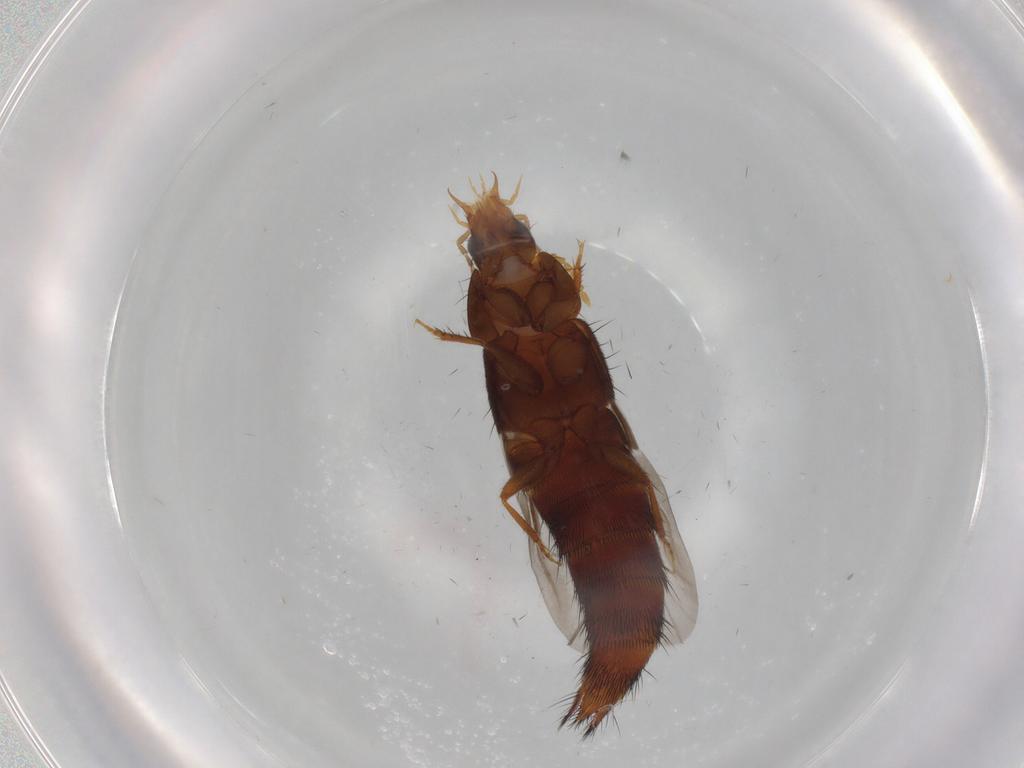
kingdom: Animalia
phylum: Arthropoda
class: Insecta
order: Coleoptera
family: Staphylinidae
